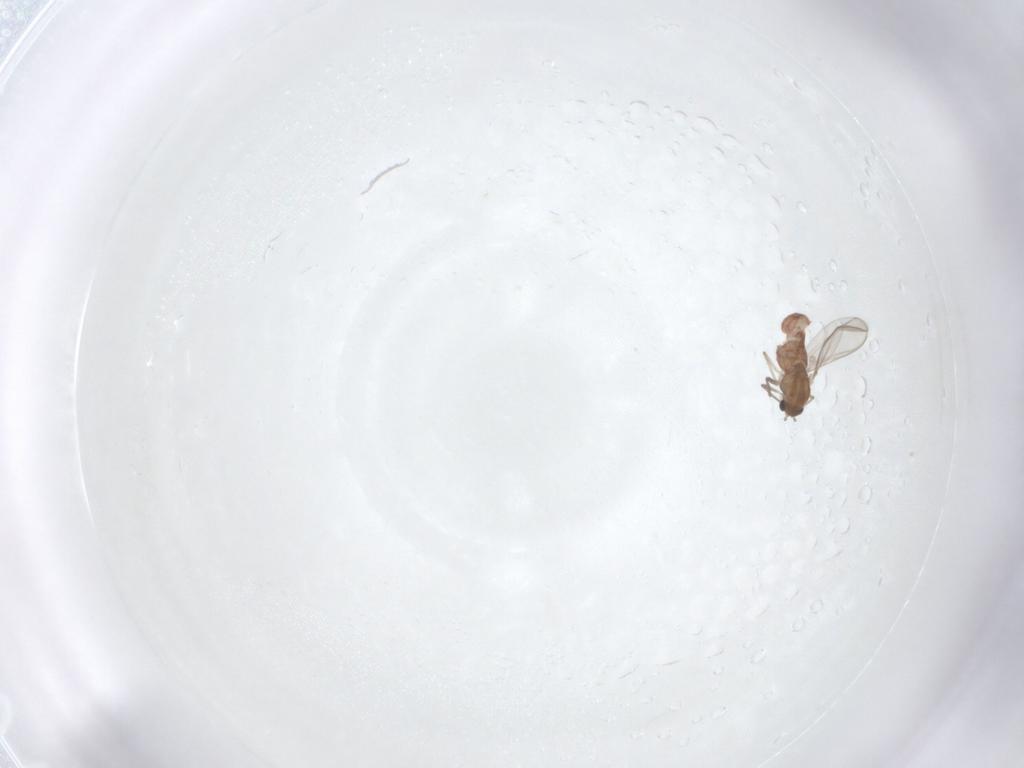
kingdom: Animalia
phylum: Arthropoda
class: Insecta
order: Diptera
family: Chironomidae
